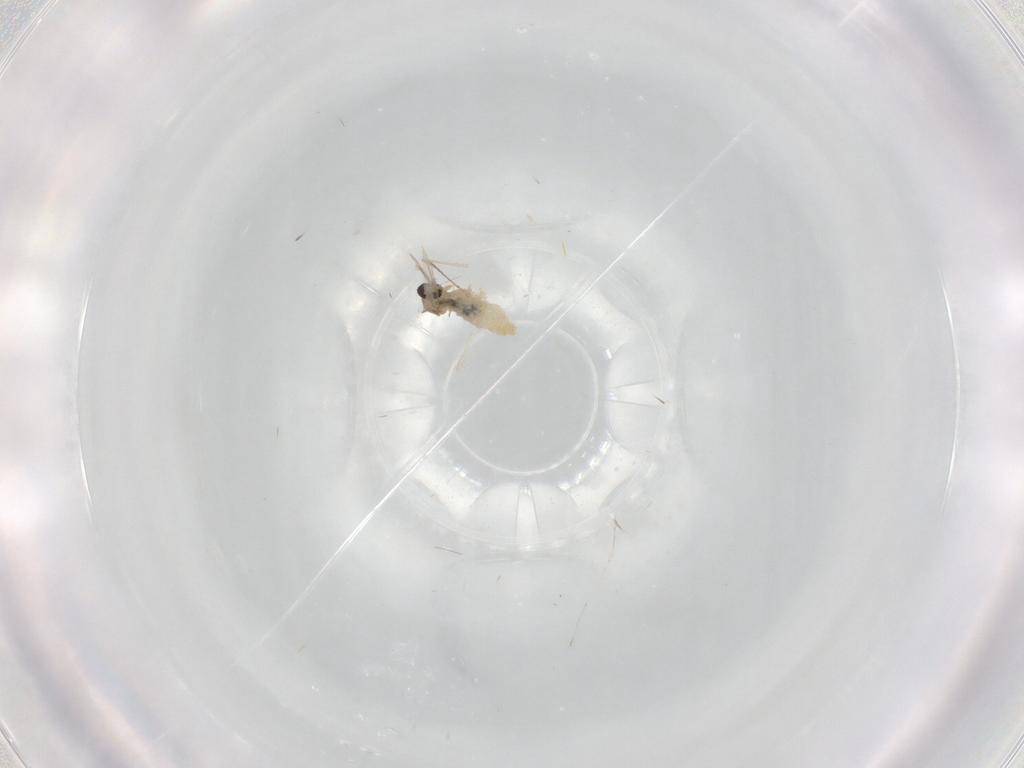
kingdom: Animalia
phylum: Arthropoda
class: Insecta
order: Diptera
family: Cecidomyiidae
